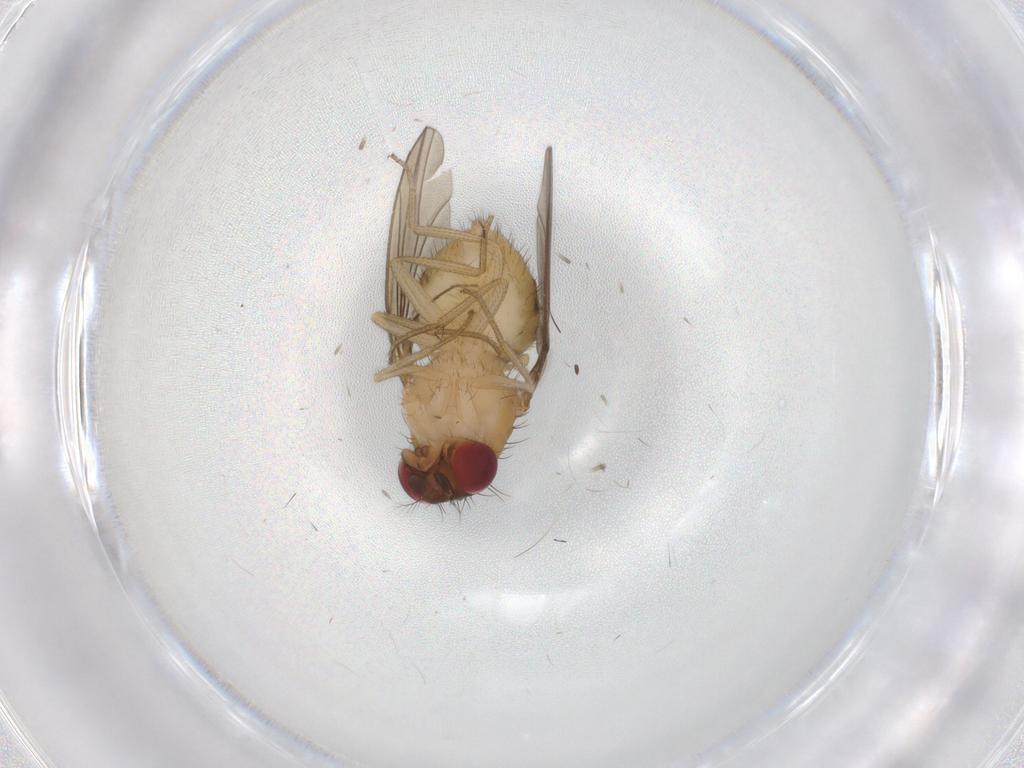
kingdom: Animalia
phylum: Arthropoda
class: Insecta
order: Diptera
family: Drosophilidae
